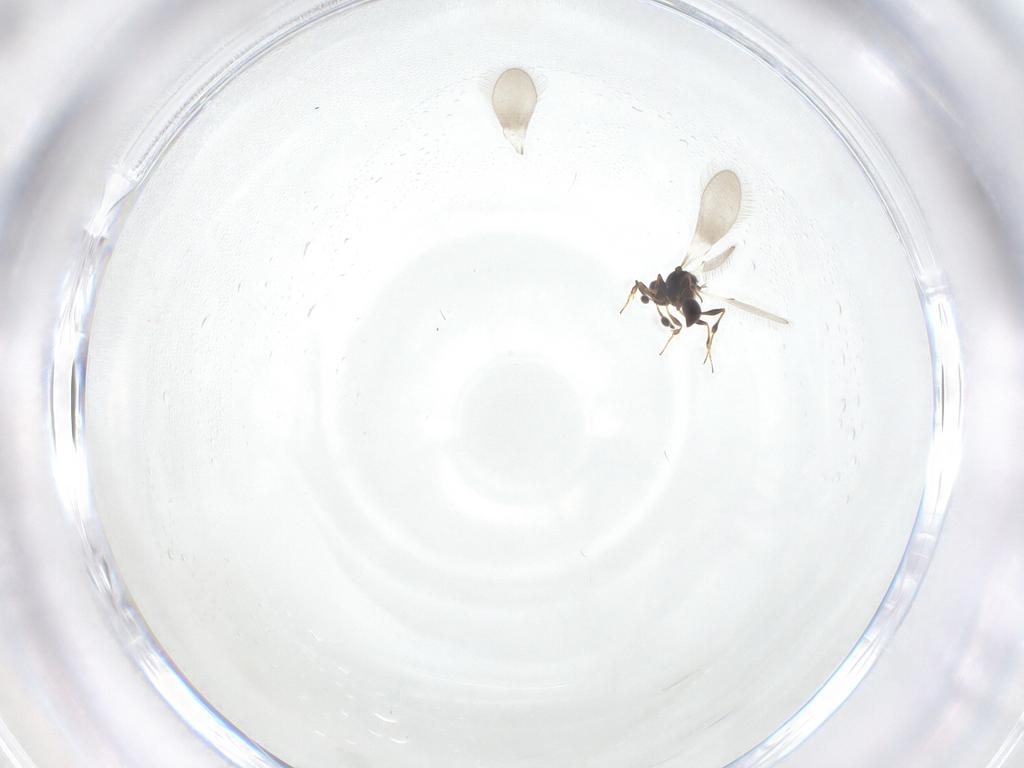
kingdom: Animalia
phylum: Arthropoda
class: Insecta
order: Hymenoptera
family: Platygastridae
